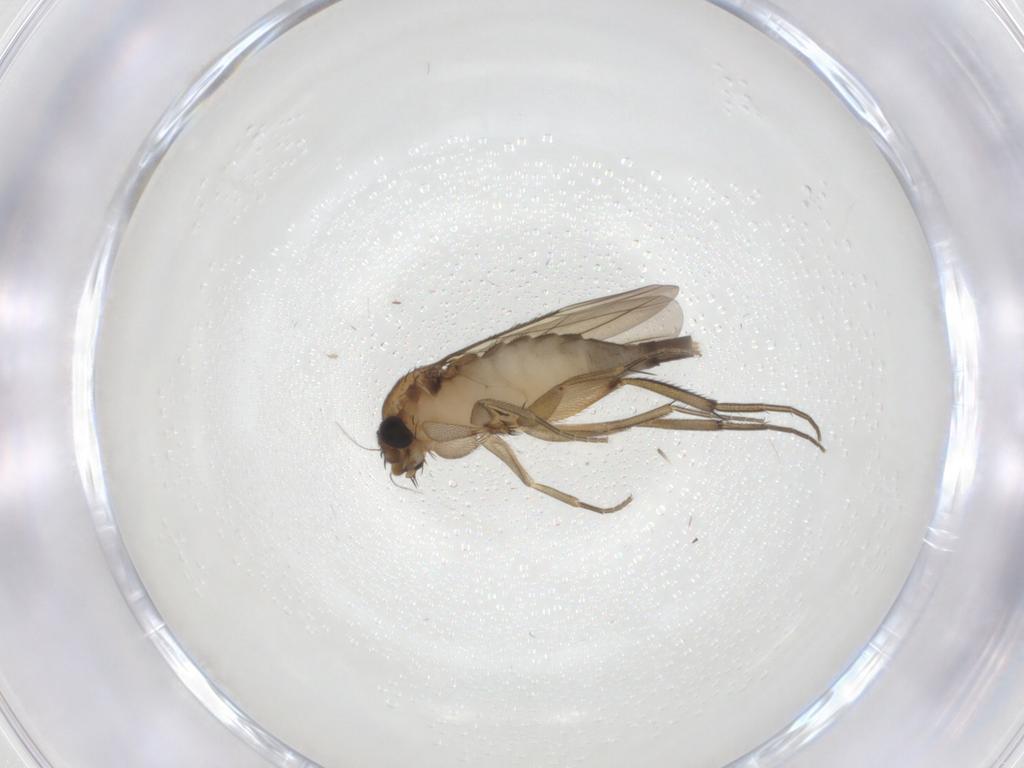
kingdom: Animalia
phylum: Arthropoda
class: Insecta
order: Diptera
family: Phoridae
